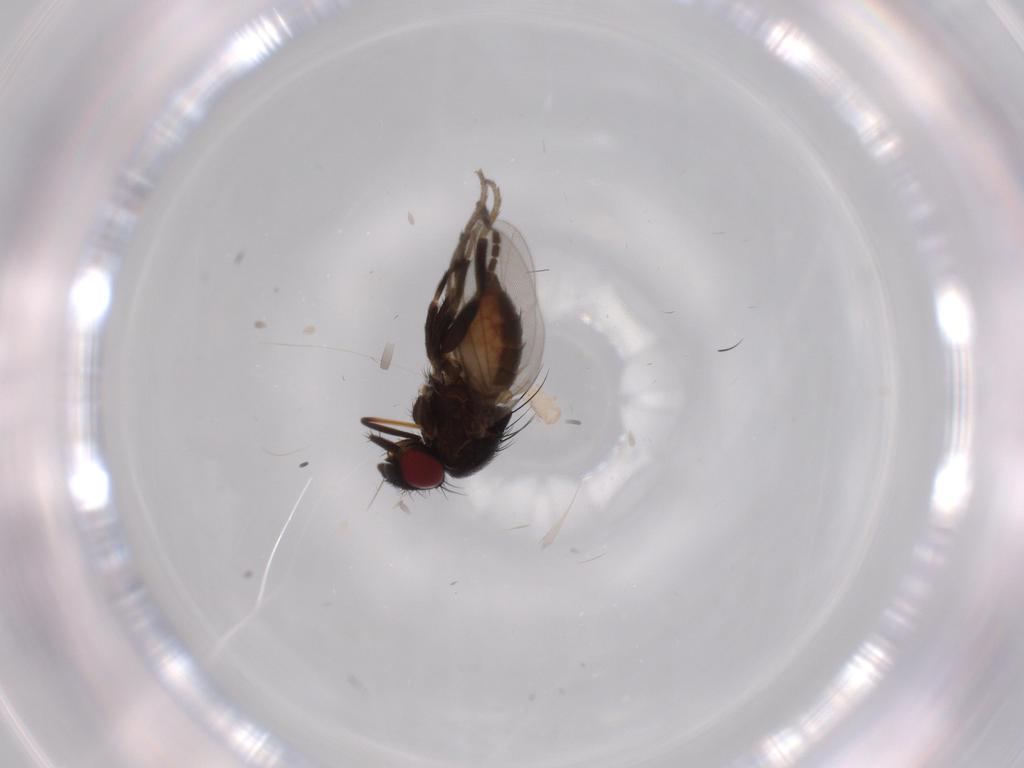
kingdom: Animalia
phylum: Arthropoda
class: Insecta
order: Diptera
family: Milichiidae
